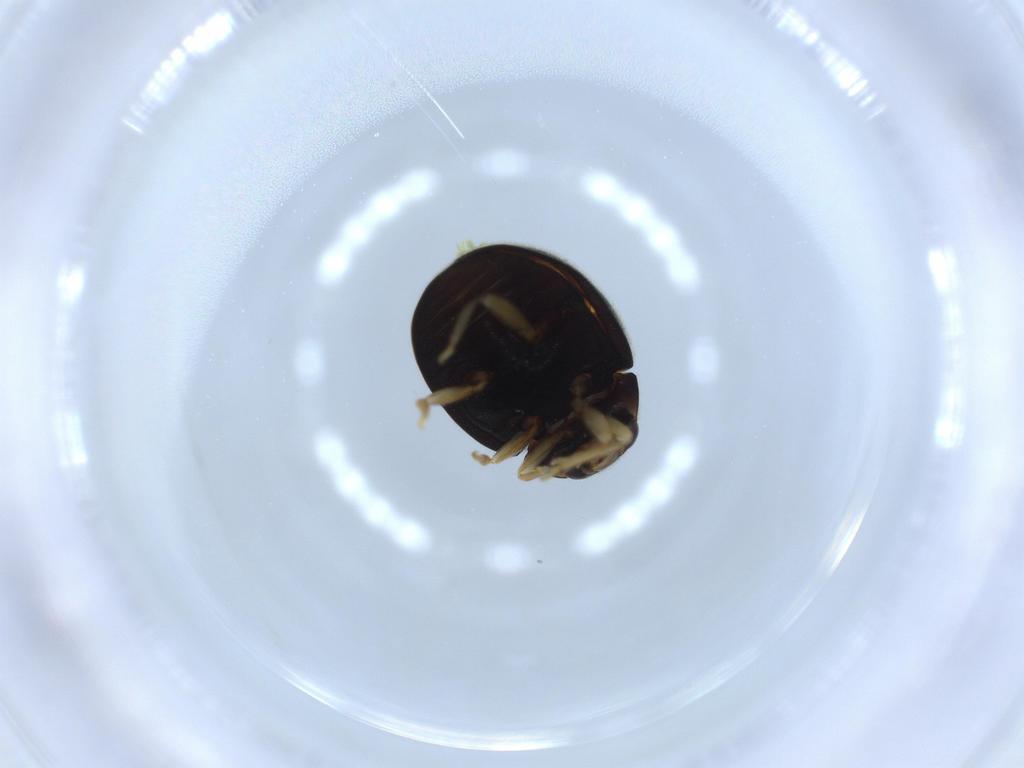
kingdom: Animalia
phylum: Arthropoda
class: Insecta
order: Coleoptera
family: Coccinellidae
